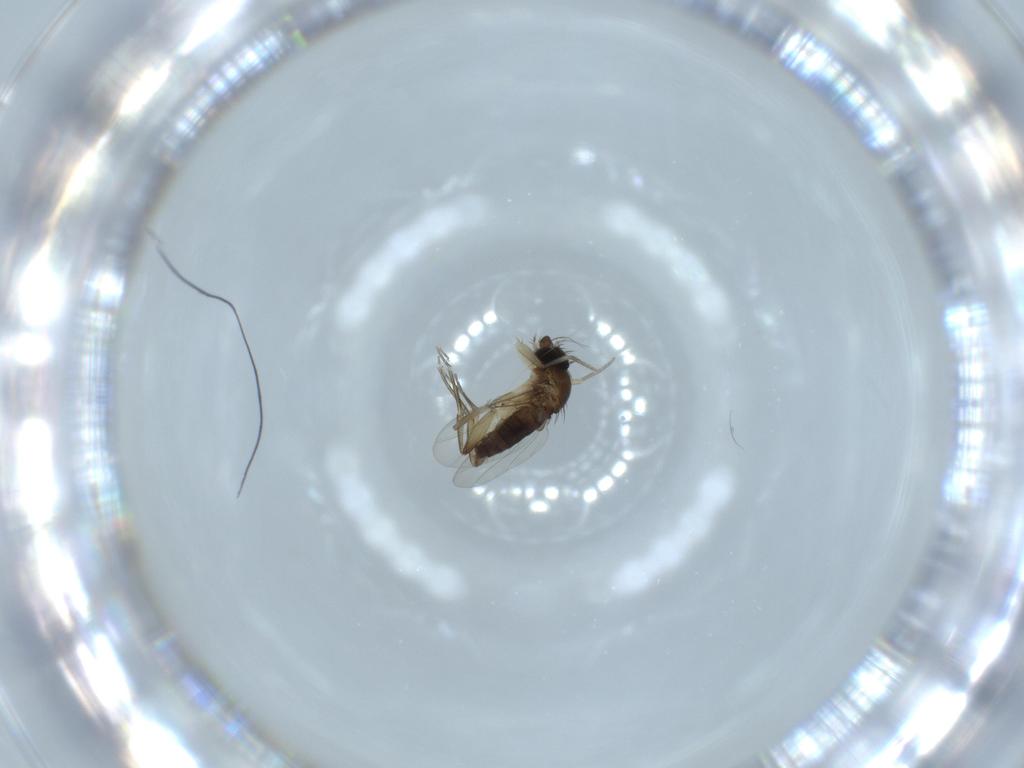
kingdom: Animalia
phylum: Arthropoda
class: Insecta
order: Diptera
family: Phoridae
